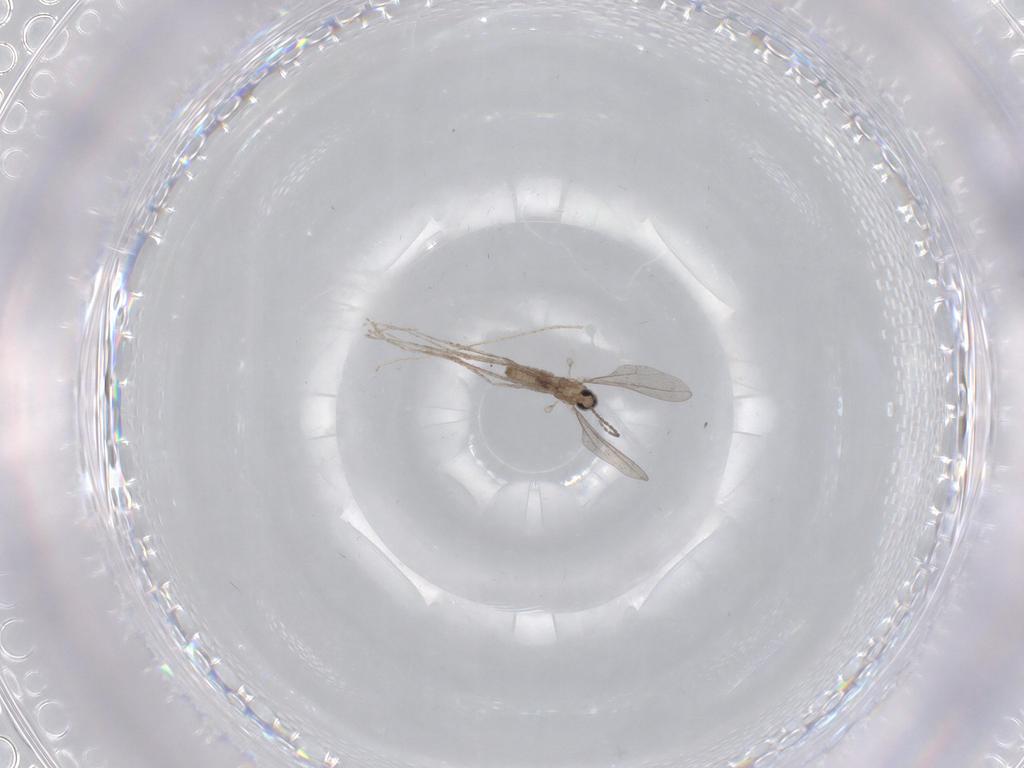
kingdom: Animalia
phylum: Arthropoda
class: Insecta
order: Diptera
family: Cecidomyiidae
